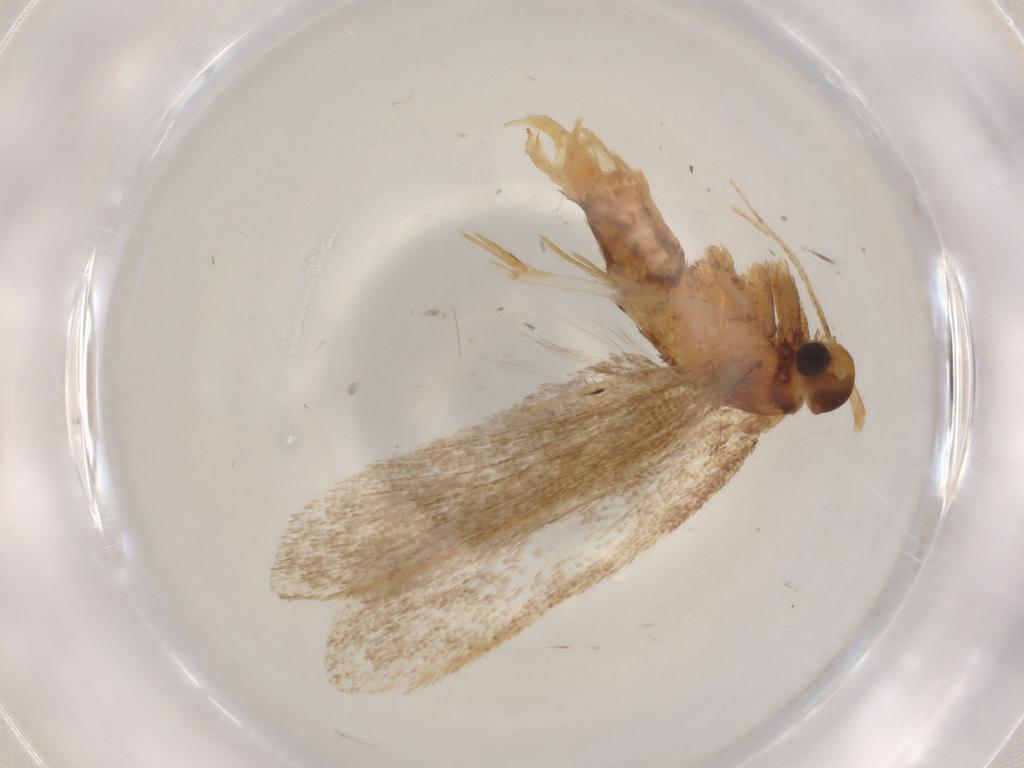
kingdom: Animalia
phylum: Arthropoda
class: Insecta
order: Lepidoptera
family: Lecithoceridae
